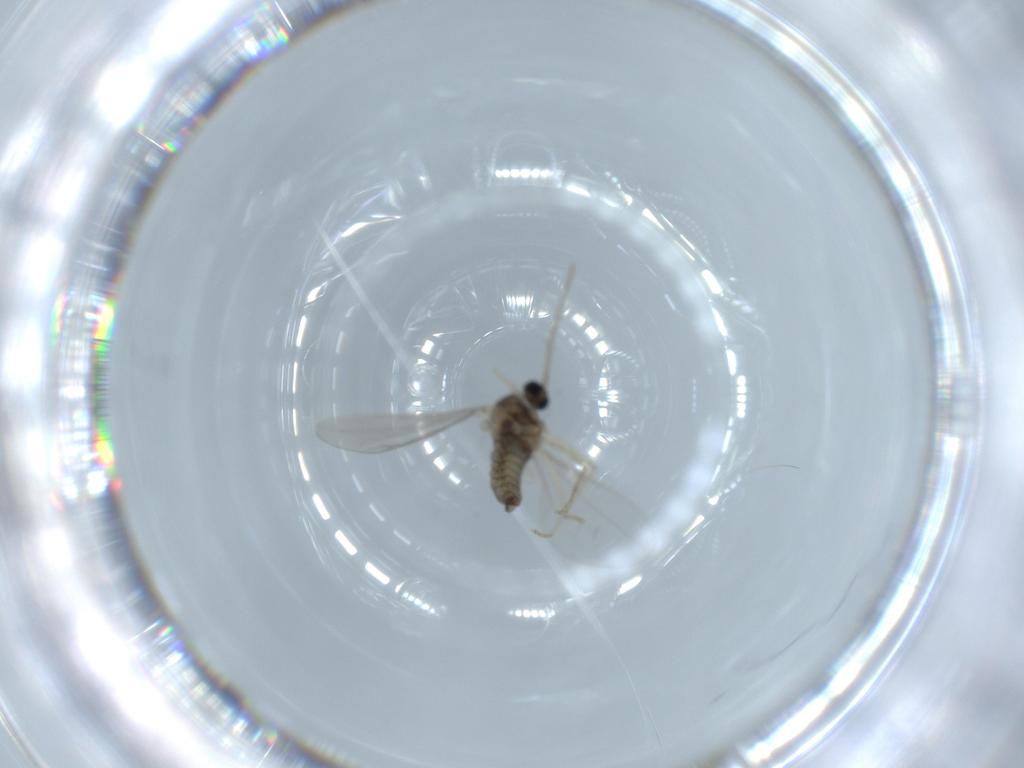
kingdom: Animalia
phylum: Arthropoda
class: Insecta
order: Diptera
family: Cecidomyiidae
